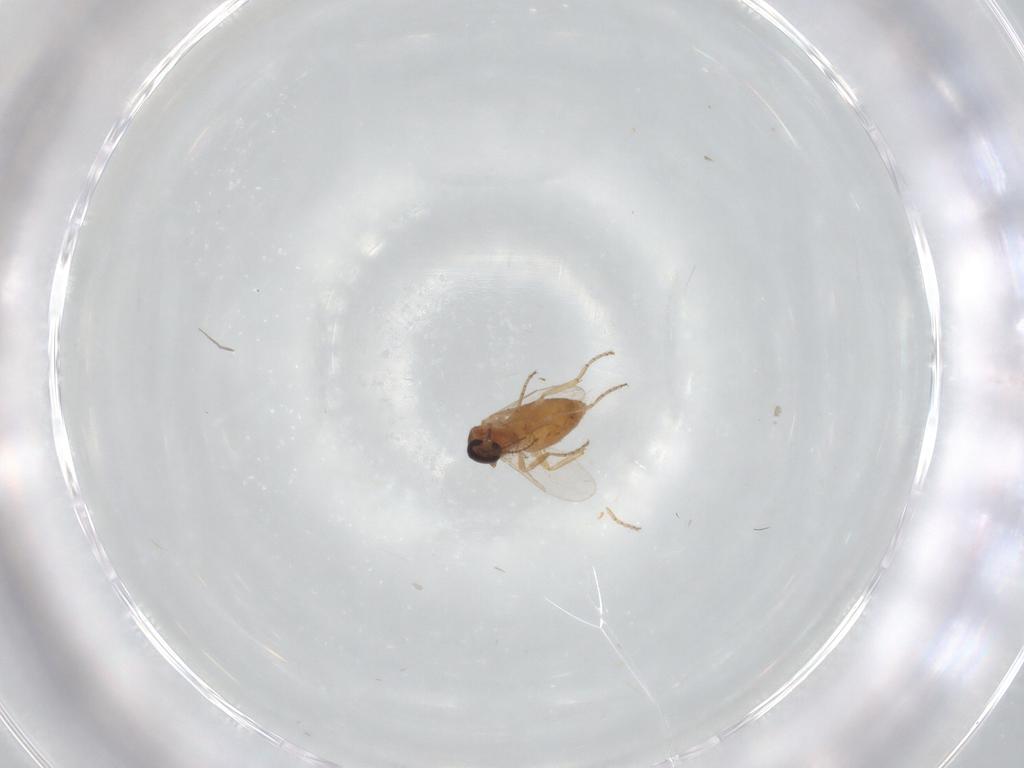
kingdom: Animalia
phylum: Arthropoda
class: Insecta
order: Diptera
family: Ceratopogonidae
